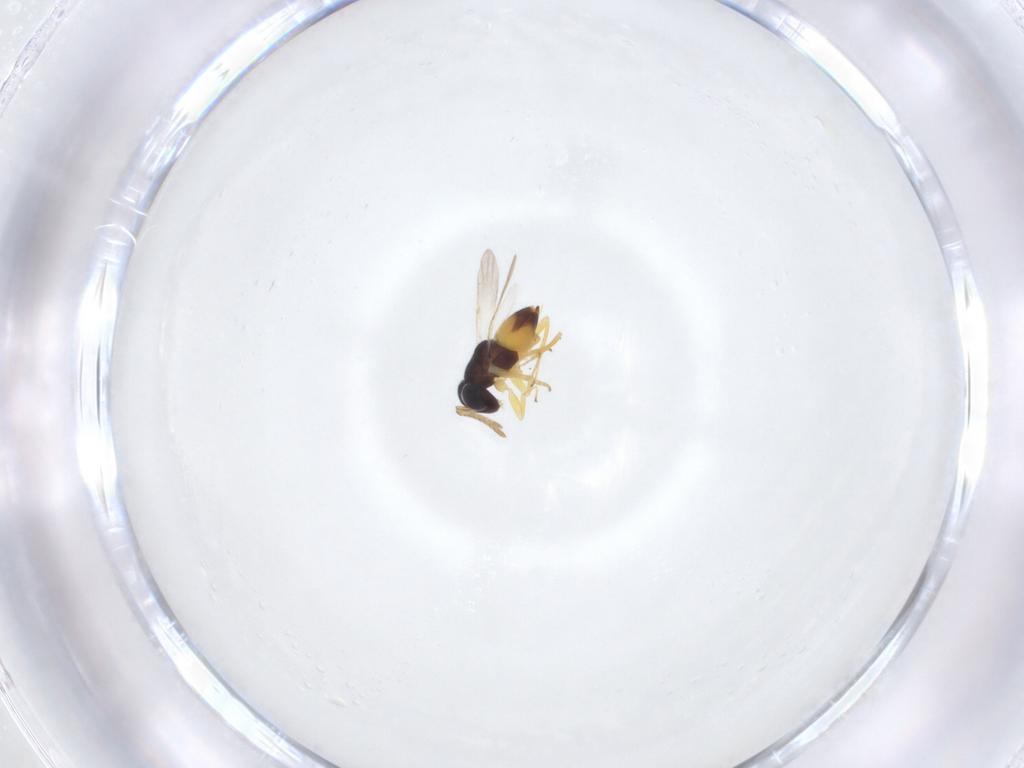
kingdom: Animalia
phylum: Arthropoda
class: Insecta
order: Hymenoptera
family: Encyrtidae
